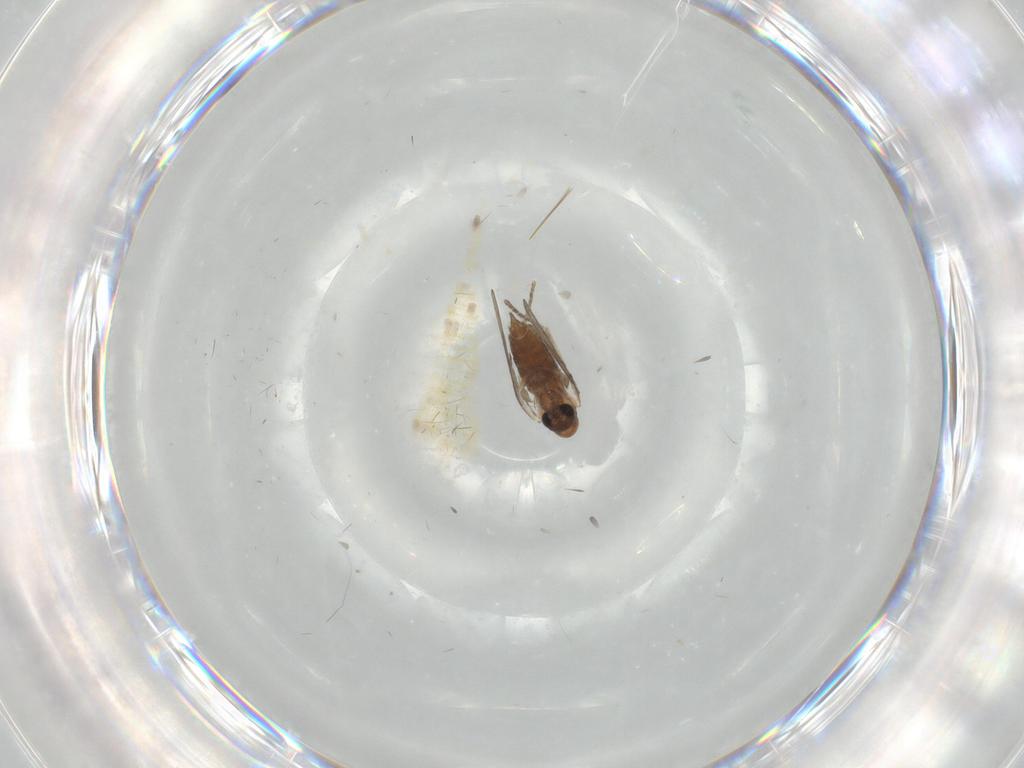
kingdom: Animalia
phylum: Arthropoda
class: Insecta
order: Diptera
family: Psychodidae
